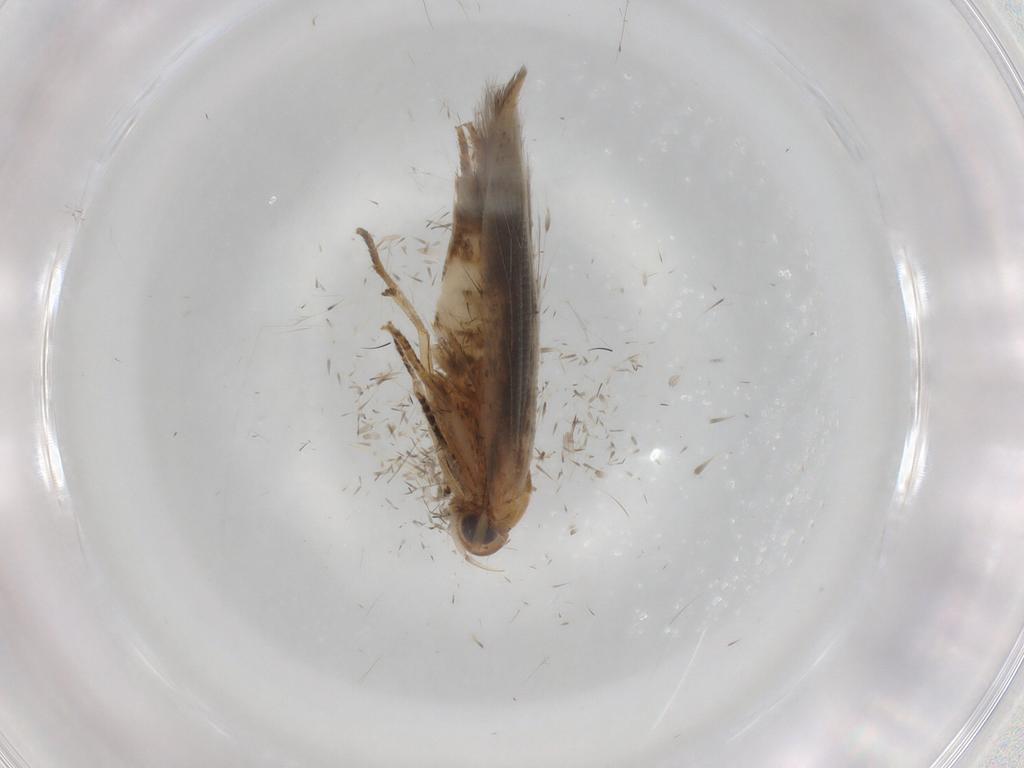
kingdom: Animalia
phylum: Arthropoda
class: Insecta
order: Lepidoptera
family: Cosmopterigidae
